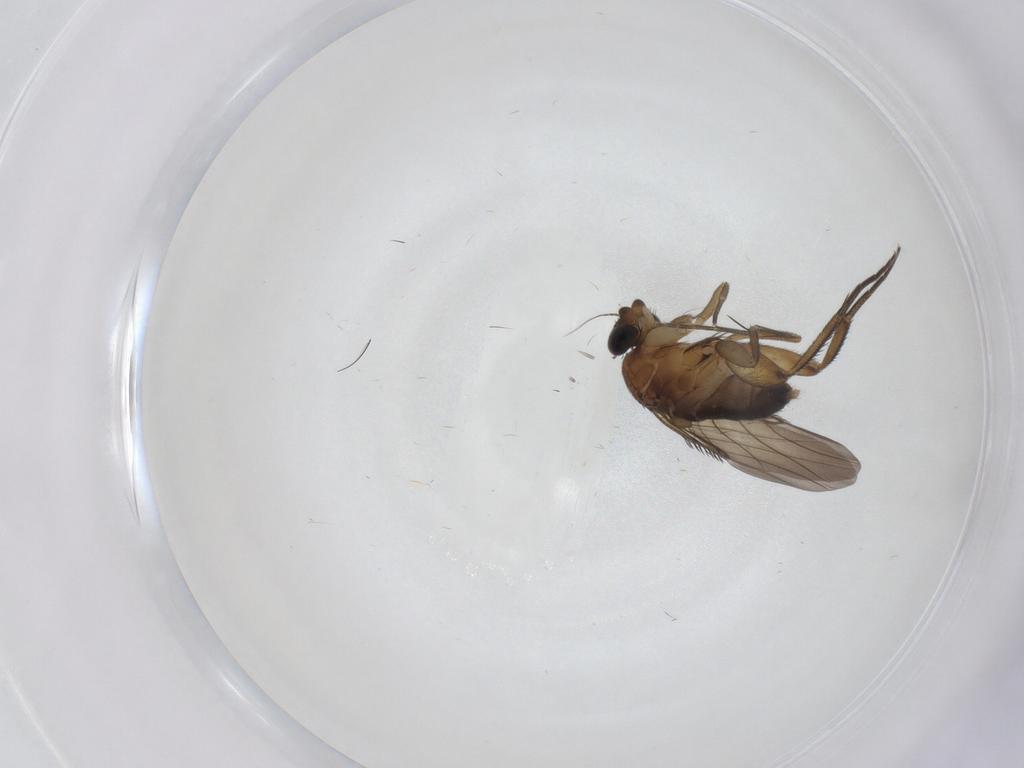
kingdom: Animalia
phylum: Arthropoda
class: Insecta
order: Diptera
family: Phoridae
